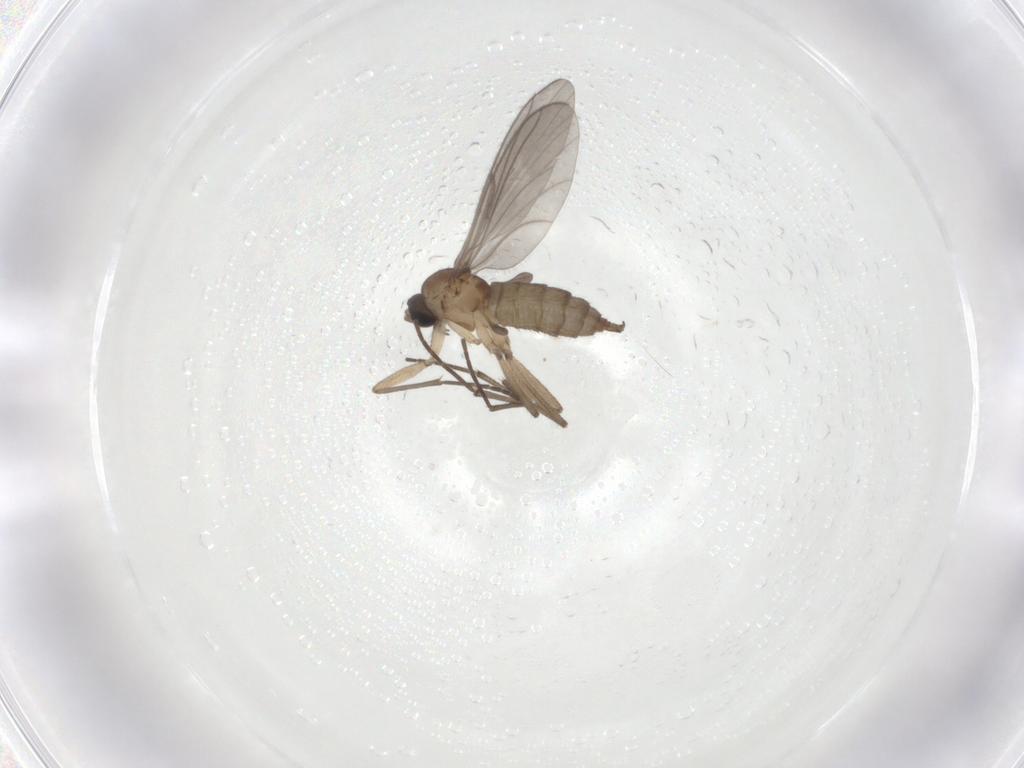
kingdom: Animalia
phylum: Arthropoda
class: Insecta
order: Diptera
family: Sciaridae
